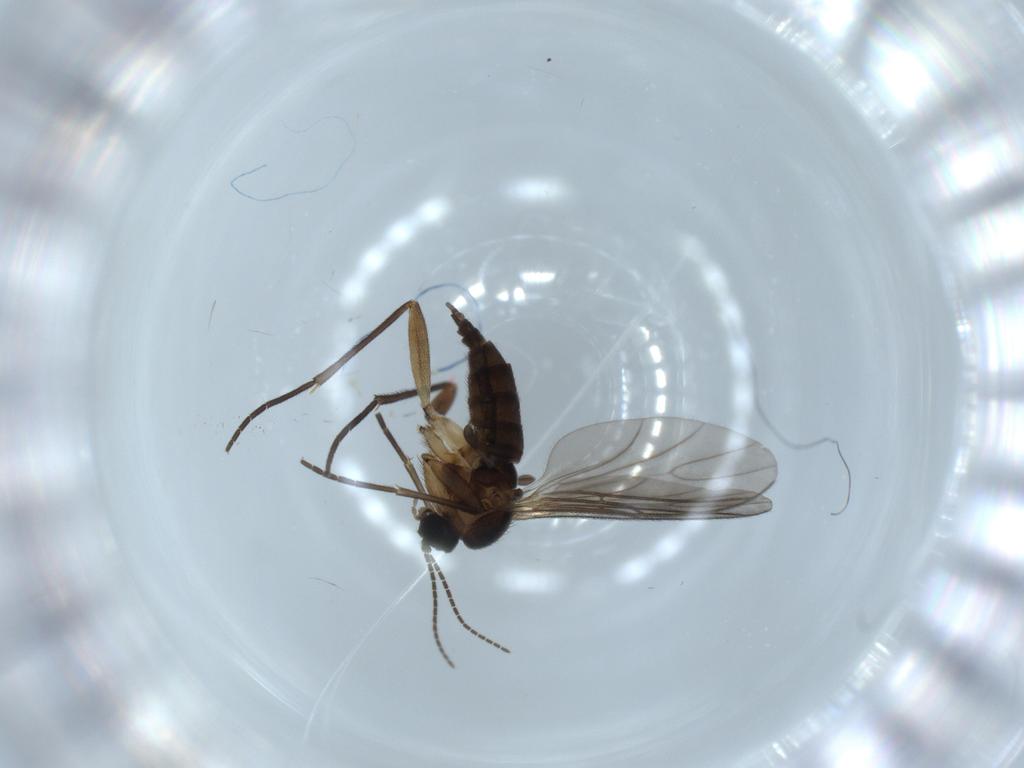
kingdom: Animalia
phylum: Arthropoda
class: Insecta
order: Diptera
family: Sciaridae
